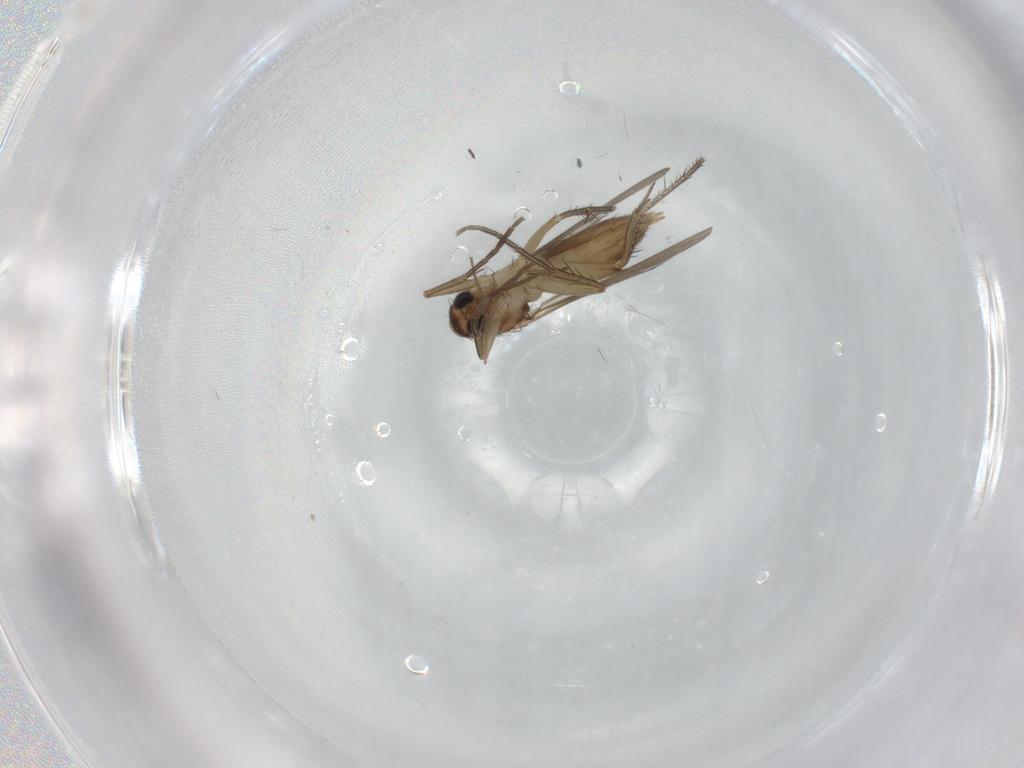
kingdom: Animalia
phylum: Arthropoda
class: Insecta
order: Diptera
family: Mycetophilidae
